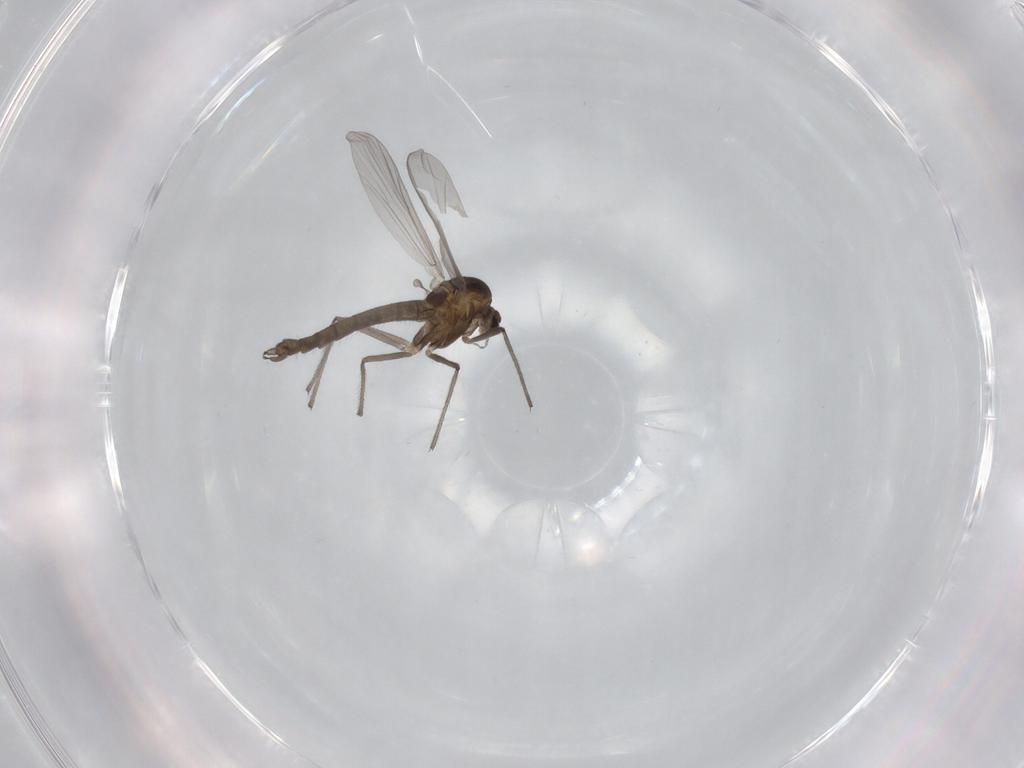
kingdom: Animalia
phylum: Arthropoda
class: Insecta
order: Diptera
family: Chironomidae
